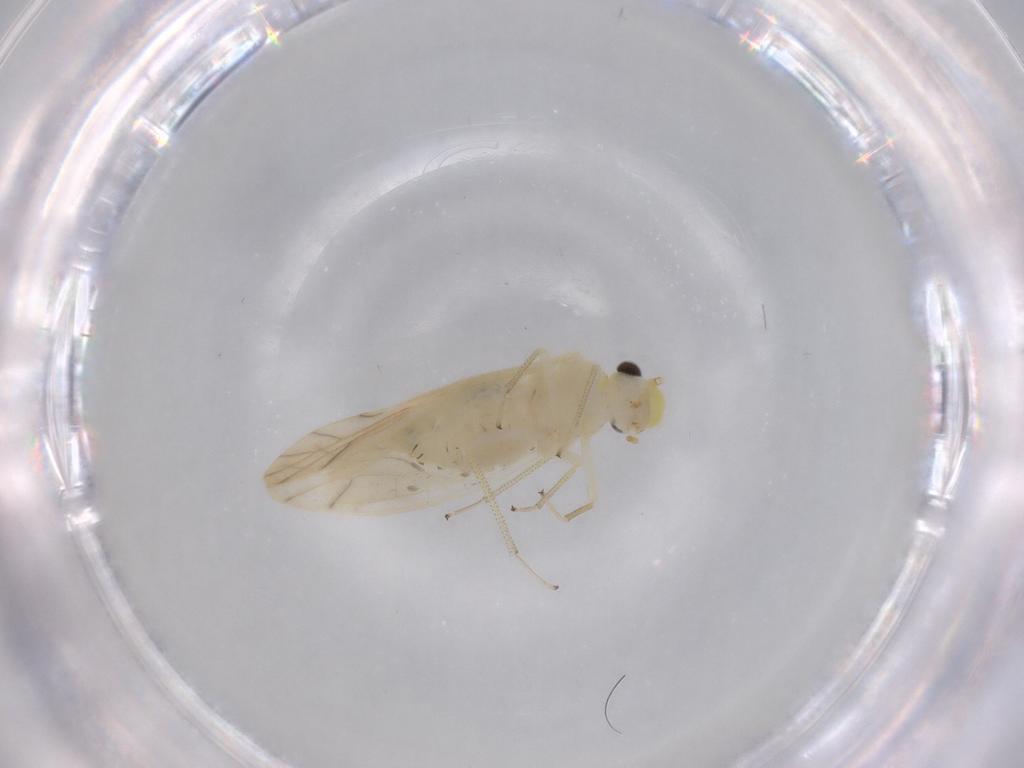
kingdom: Animalia
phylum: Arthropoda
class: Insecta
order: Psocodea
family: Caeciliusidae
